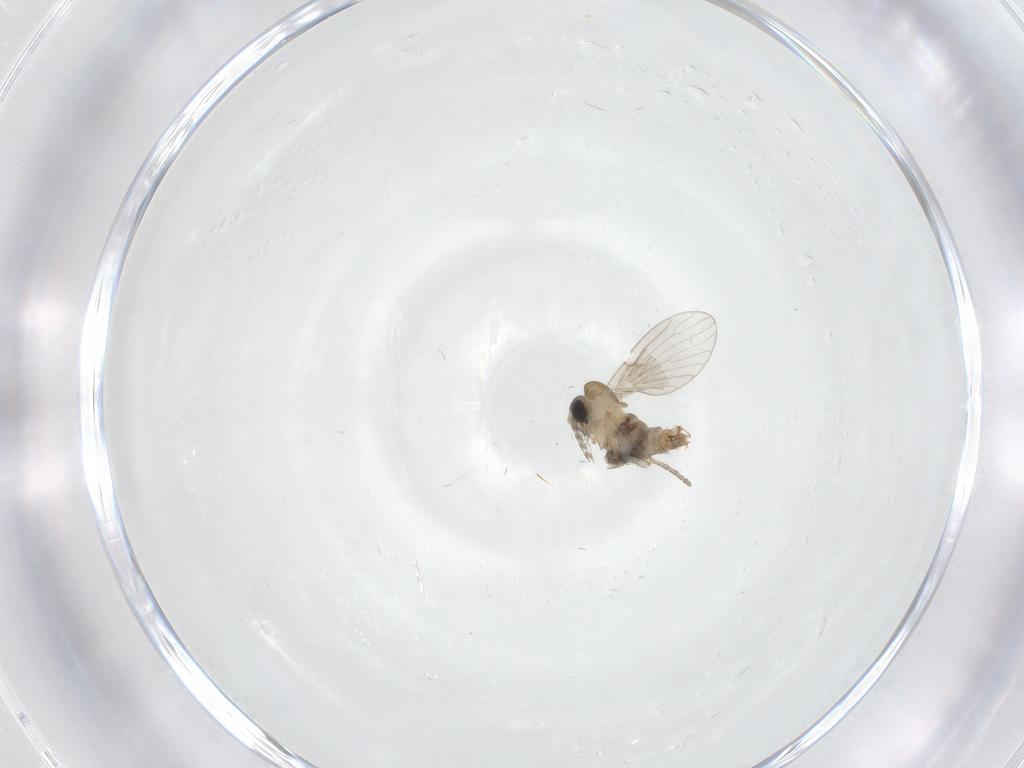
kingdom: Animalia
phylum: Arthropoda
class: Insecta
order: Diptera
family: Psychodidae
